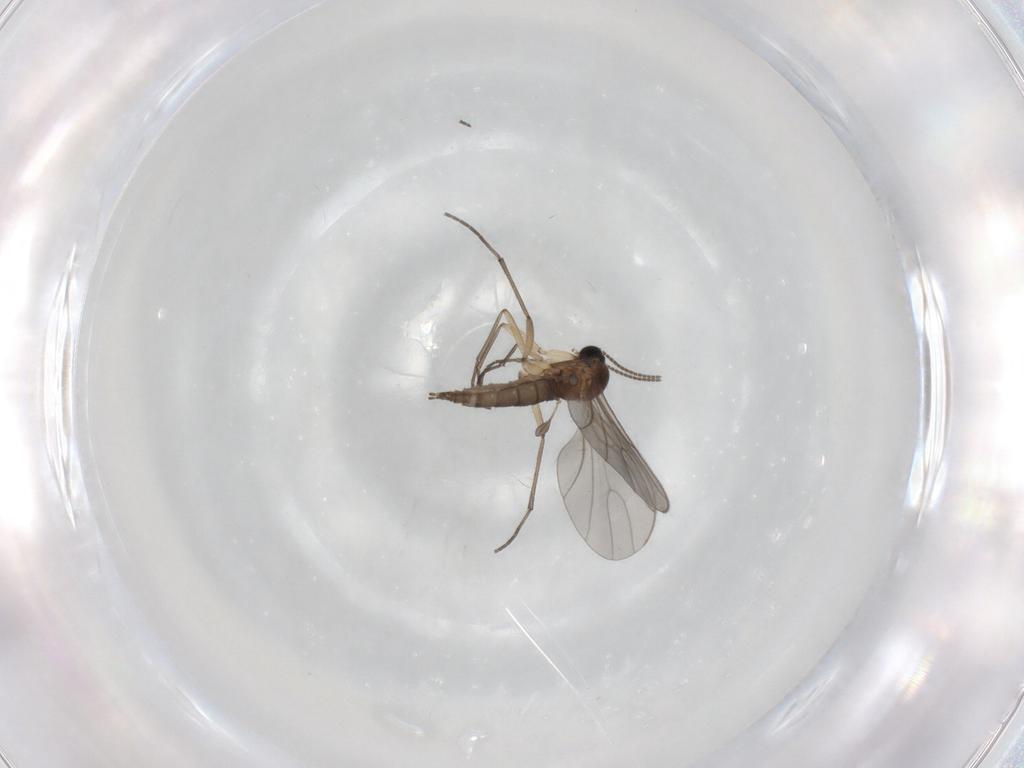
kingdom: Animalia
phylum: Arthropoda
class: Insecta
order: Diptera
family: Sciaridae
